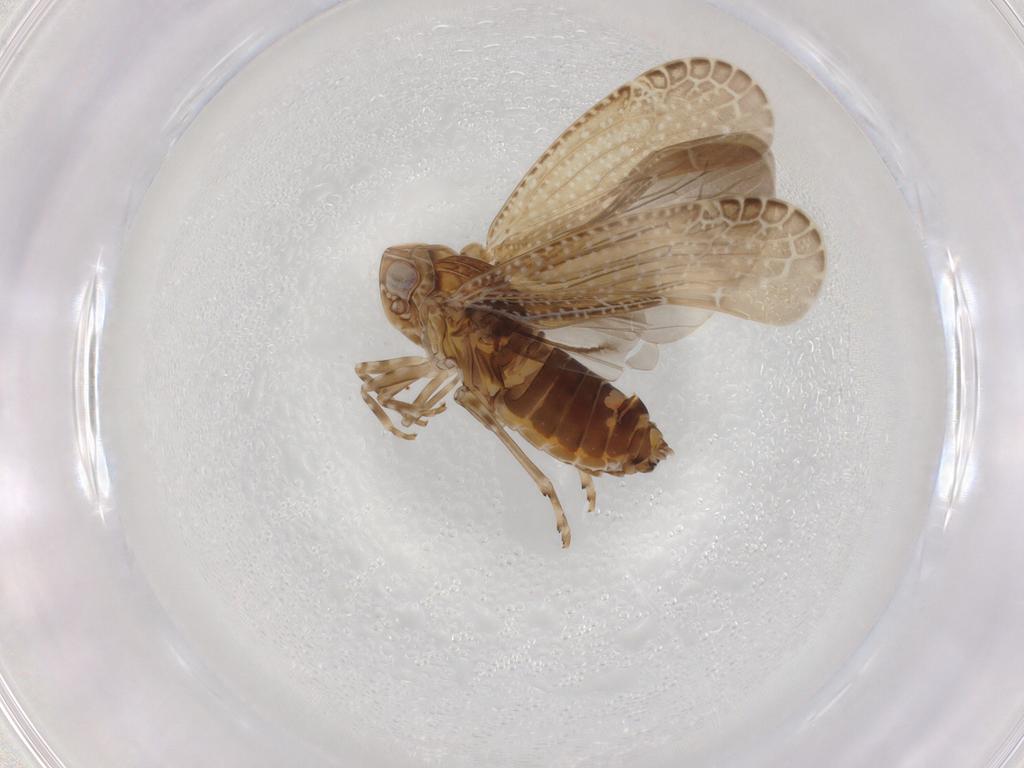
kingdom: Animalia
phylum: Arthropoda
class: Insecta
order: Hemiptera
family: Achilidae
